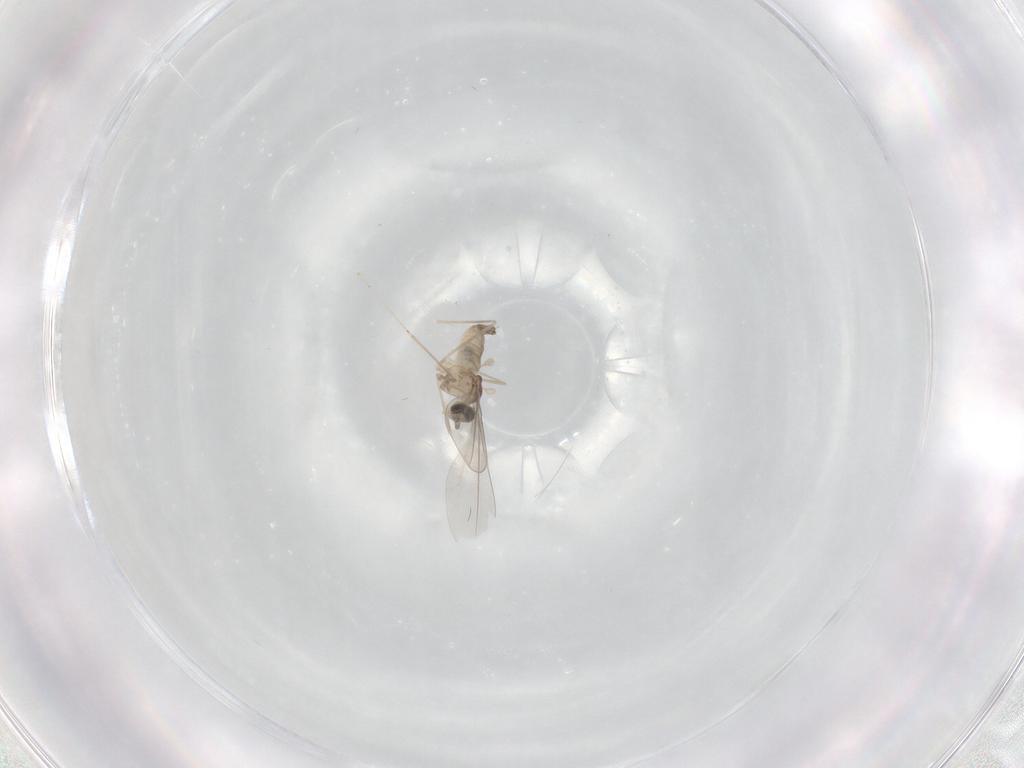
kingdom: Animalia
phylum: Arthropoda
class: Insecta
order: Diptera
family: Cecidomyiidae
